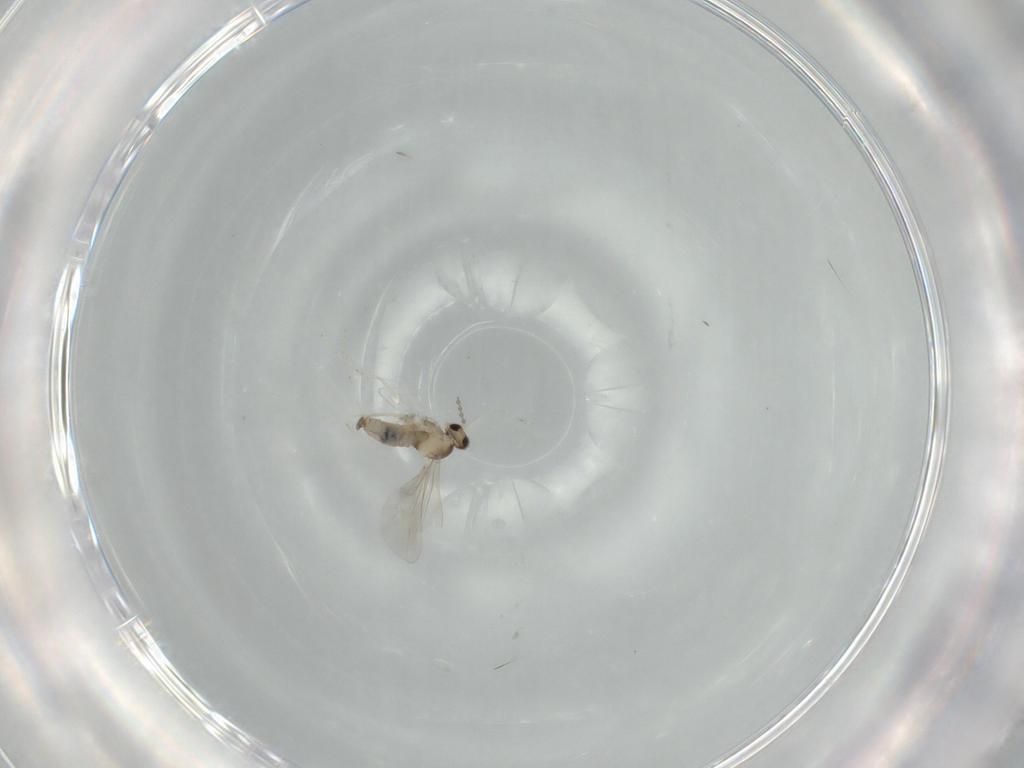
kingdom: Animalia
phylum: Arthropoda
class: Insecta
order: Diptera
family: Cecidomyiidae
